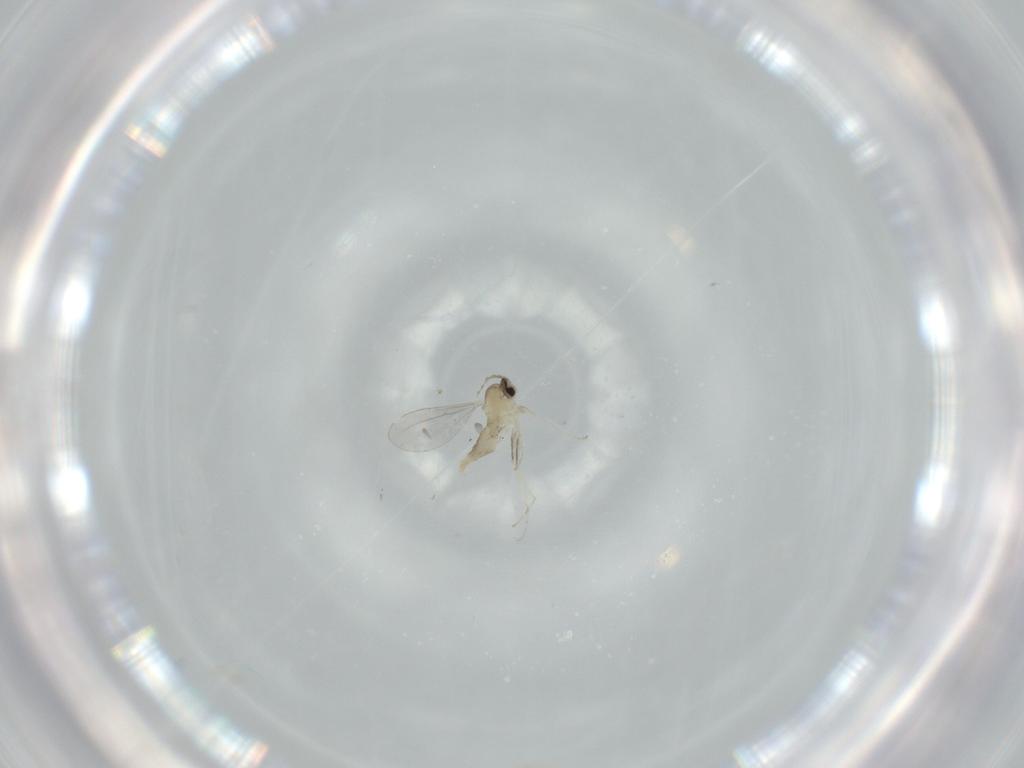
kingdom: Animalia
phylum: Arthropoda
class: Insecta
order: Diptera
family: Cecidomyiidae
